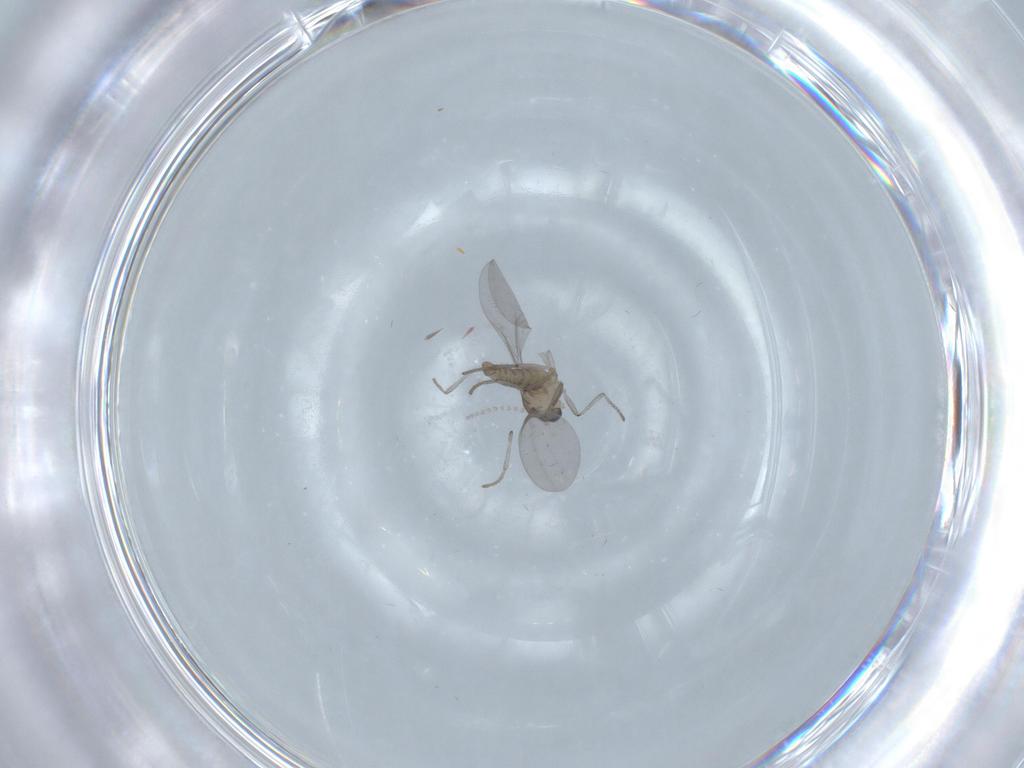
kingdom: Animalia
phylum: Arthropoda
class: Insecta
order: Diptera
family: Cecidomyiidae
